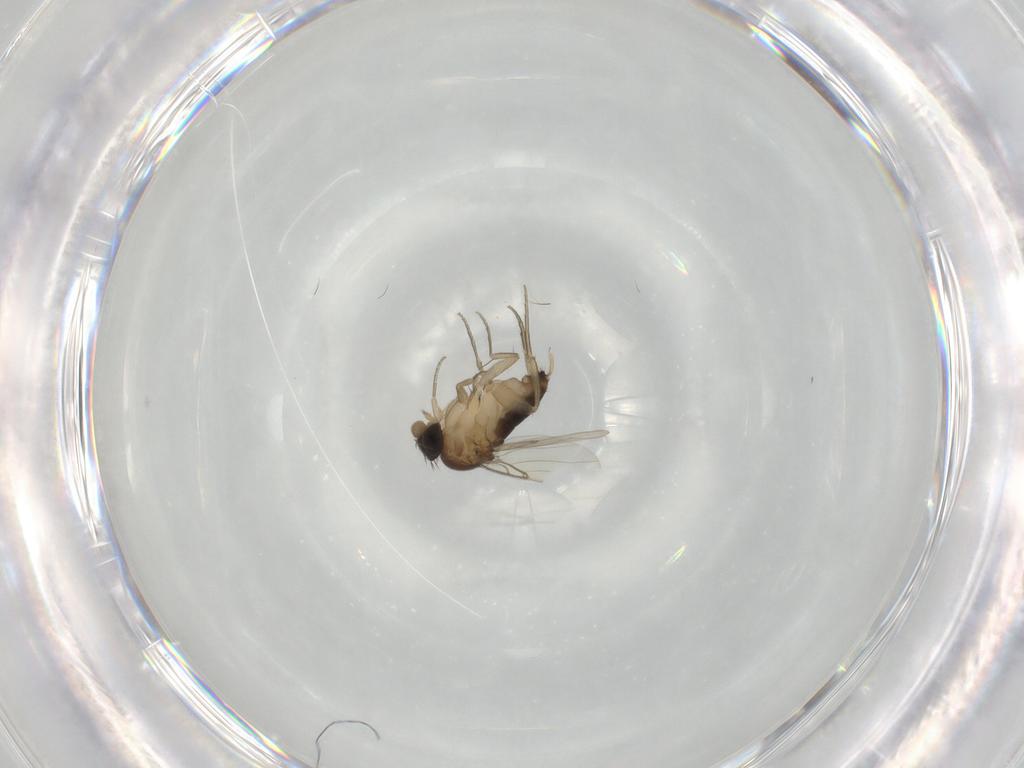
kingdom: Animalia
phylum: Arthropoda
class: Insecta
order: Diptera
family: Phoridae
